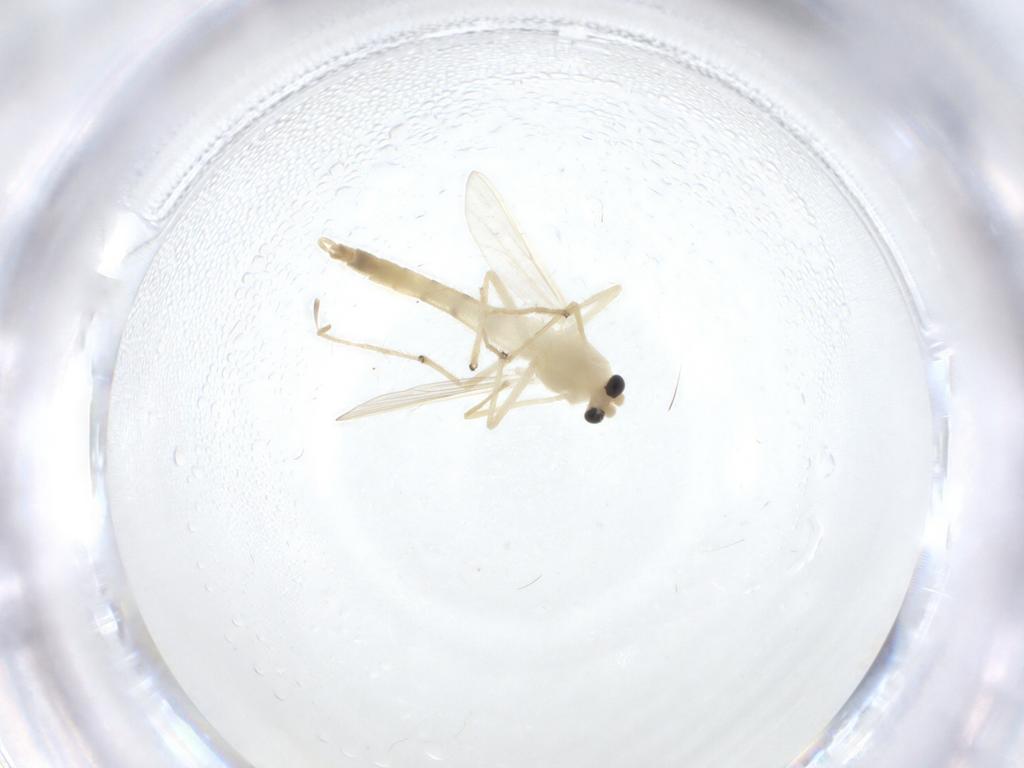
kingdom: Animalia
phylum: Arthropoda
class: Insecta
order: Diptera
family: Chironomidae
